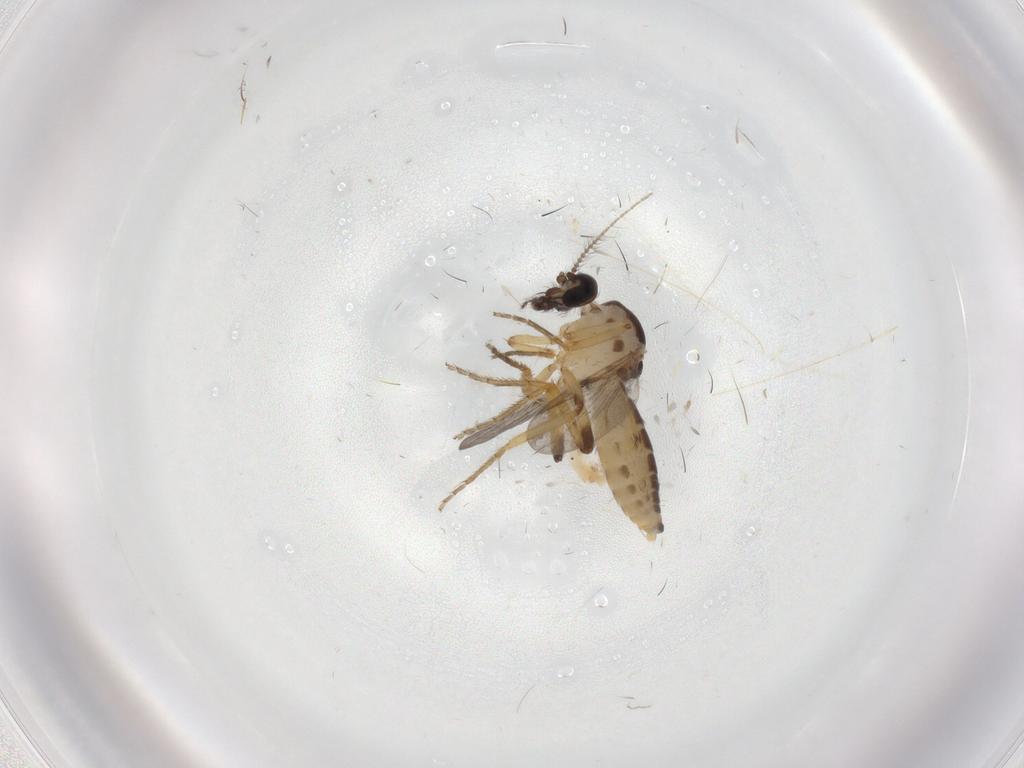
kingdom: Animalia
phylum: Arthropoda
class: Insecta
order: Diptera
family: Ceratopogonidae
